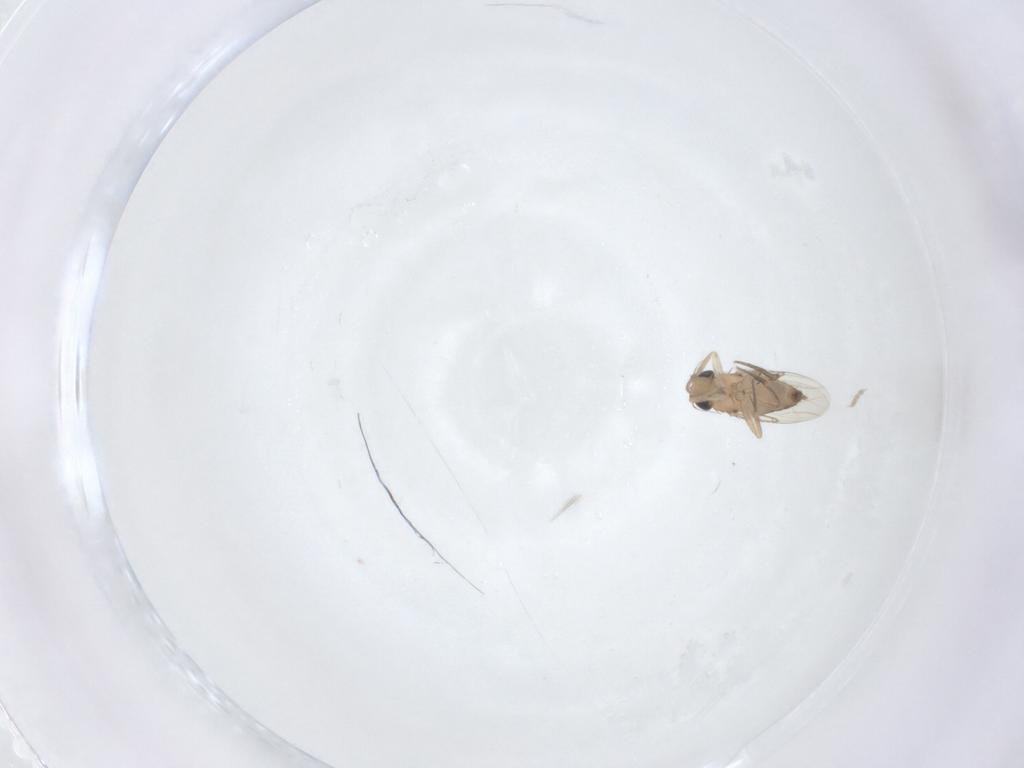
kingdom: Animalia
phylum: Arthropoda
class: Insecta
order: Diptera
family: Phoridae
